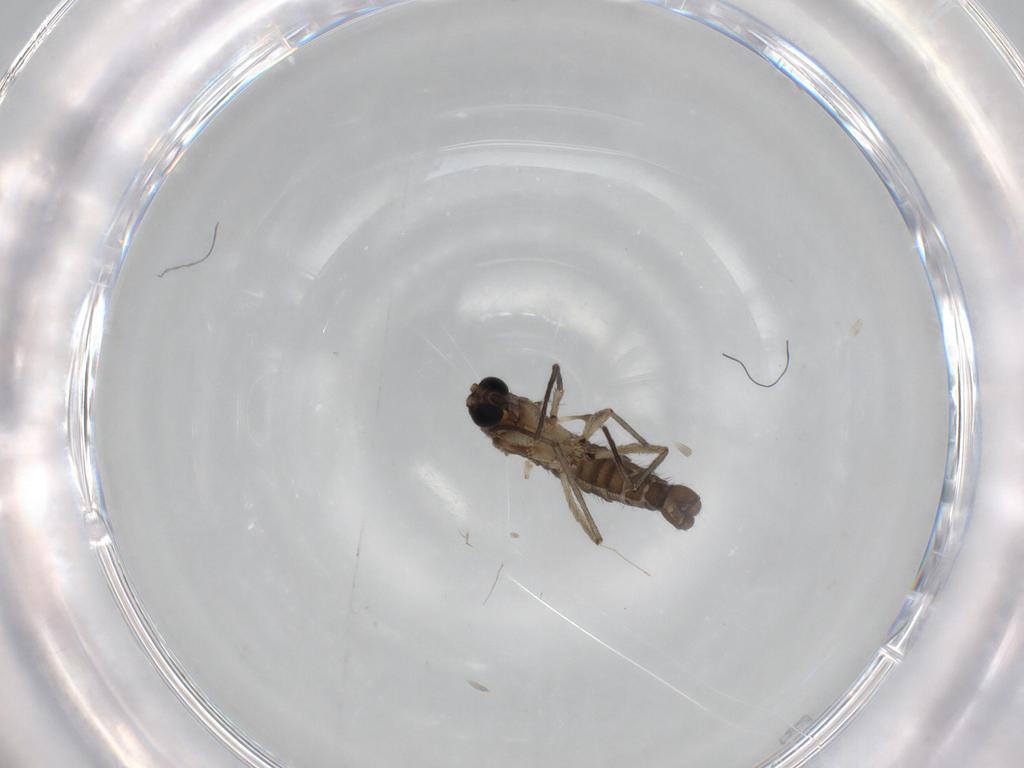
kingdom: Animalia
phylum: Arthropoda
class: Insecta
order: Diptera
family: Sciaridae
